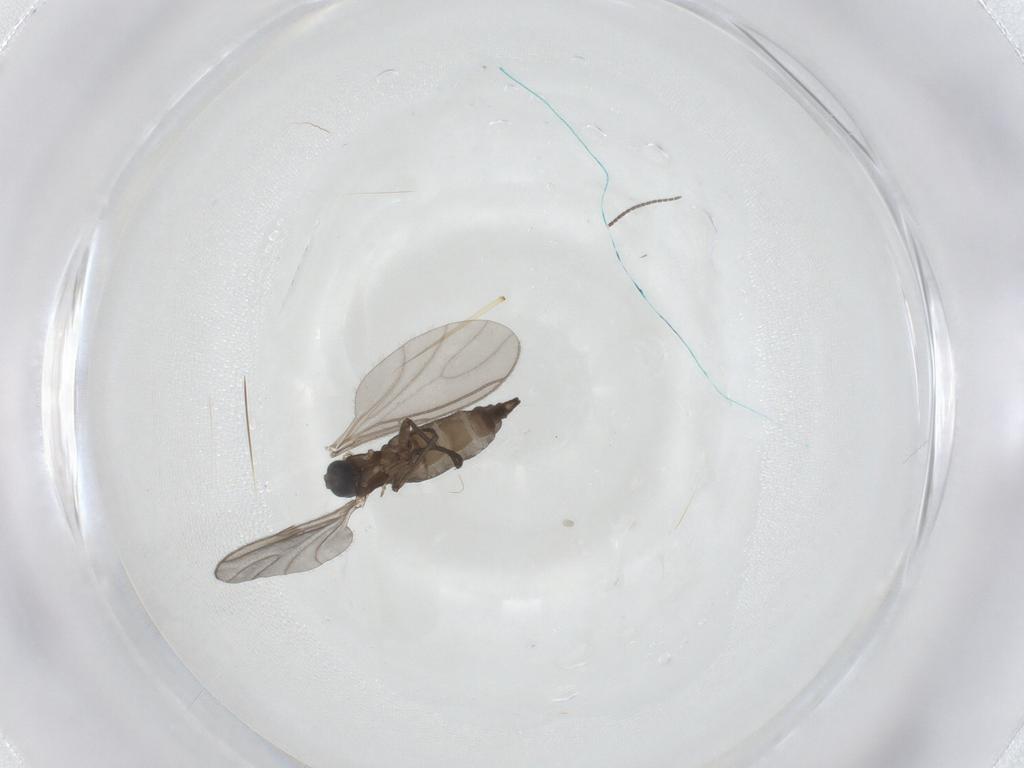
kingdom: Animalia
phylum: Arthropoda
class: Insecta
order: Diptera
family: Sciaridae
